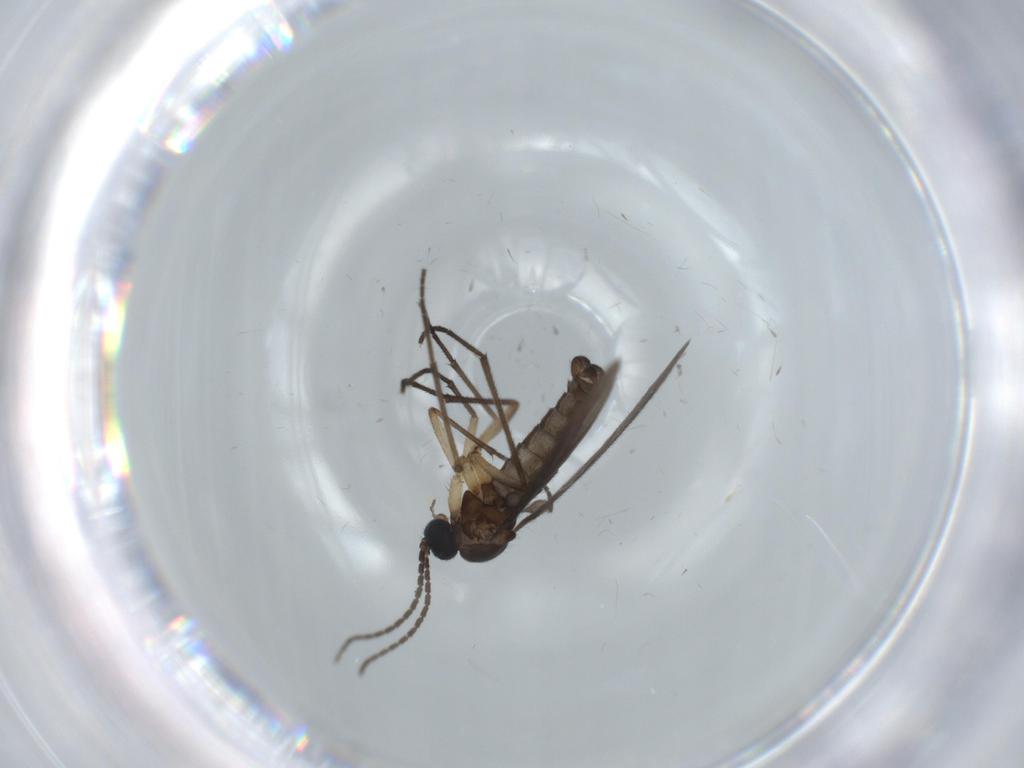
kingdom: Animalia
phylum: Arthropoda
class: Insecta
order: Diptera
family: Sciaridae
